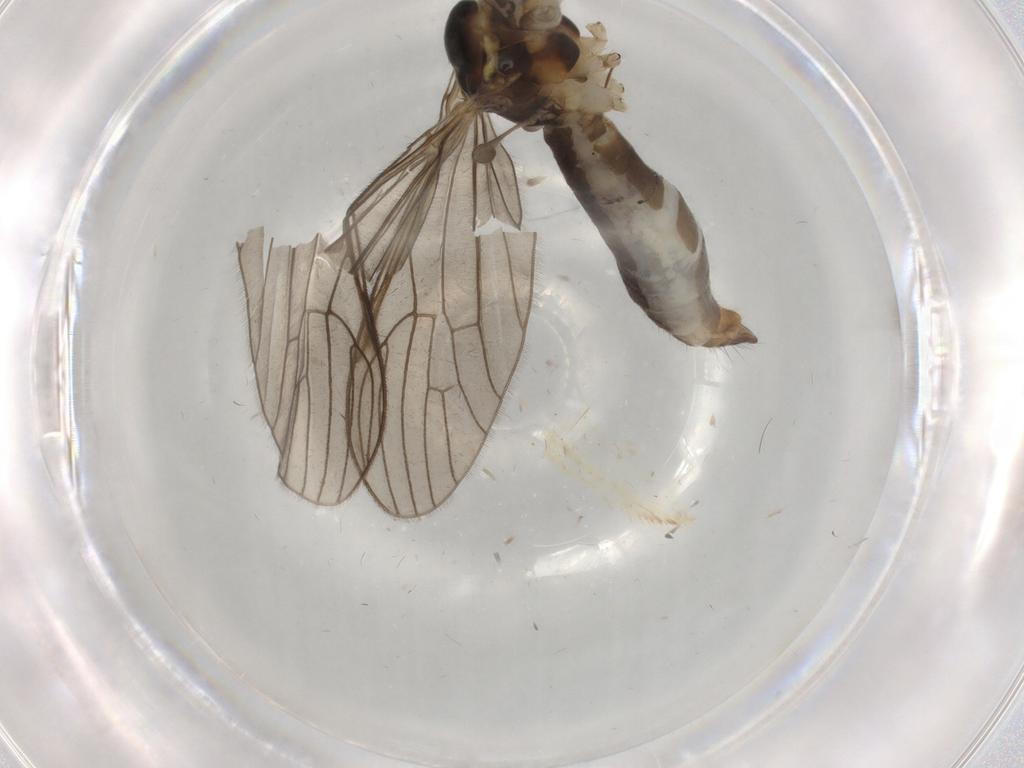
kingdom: Animalia
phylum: Arthropoda
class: Insecta
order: Diptera
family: Limoniidae
